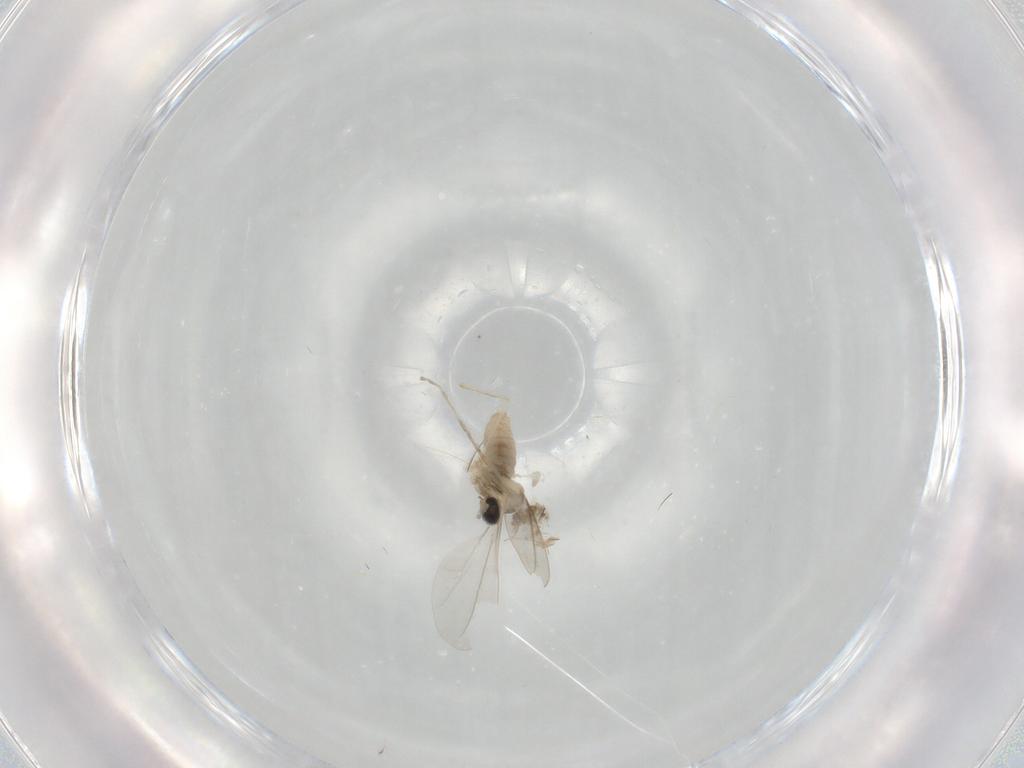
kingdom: Animalia
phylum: Arthropoda
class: Insecta
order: Diptera
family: Cecidomyiidae
